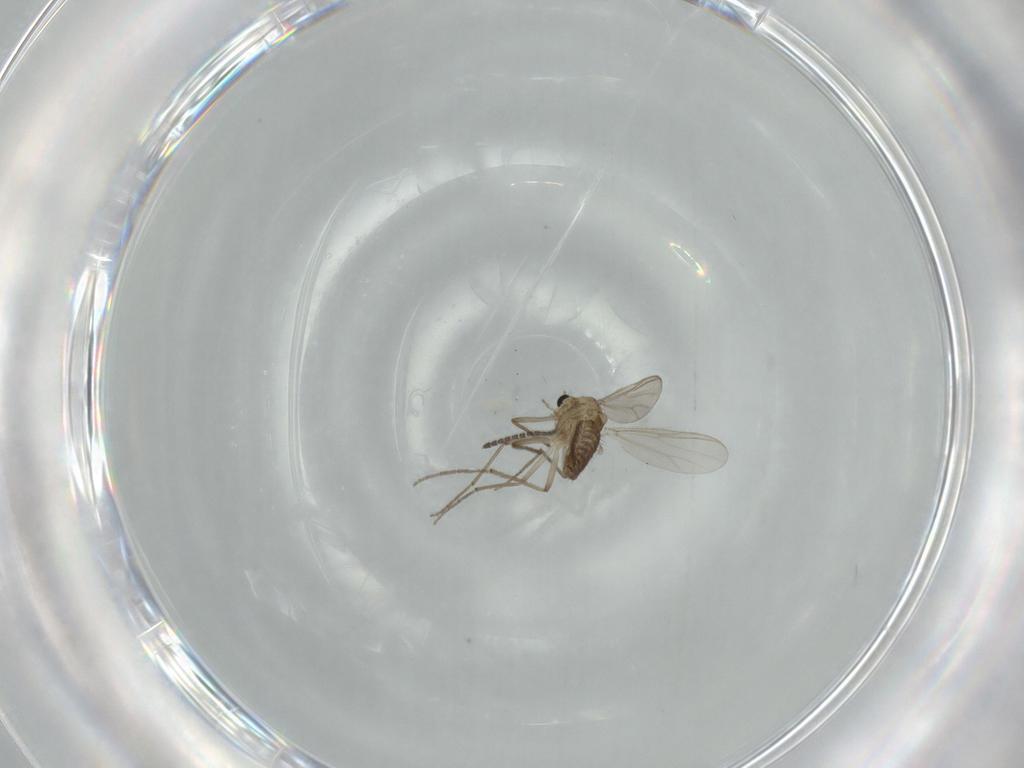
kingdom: Animalia
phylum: Arthropoda
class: Insecta
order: Diptera
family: Chironomidae
